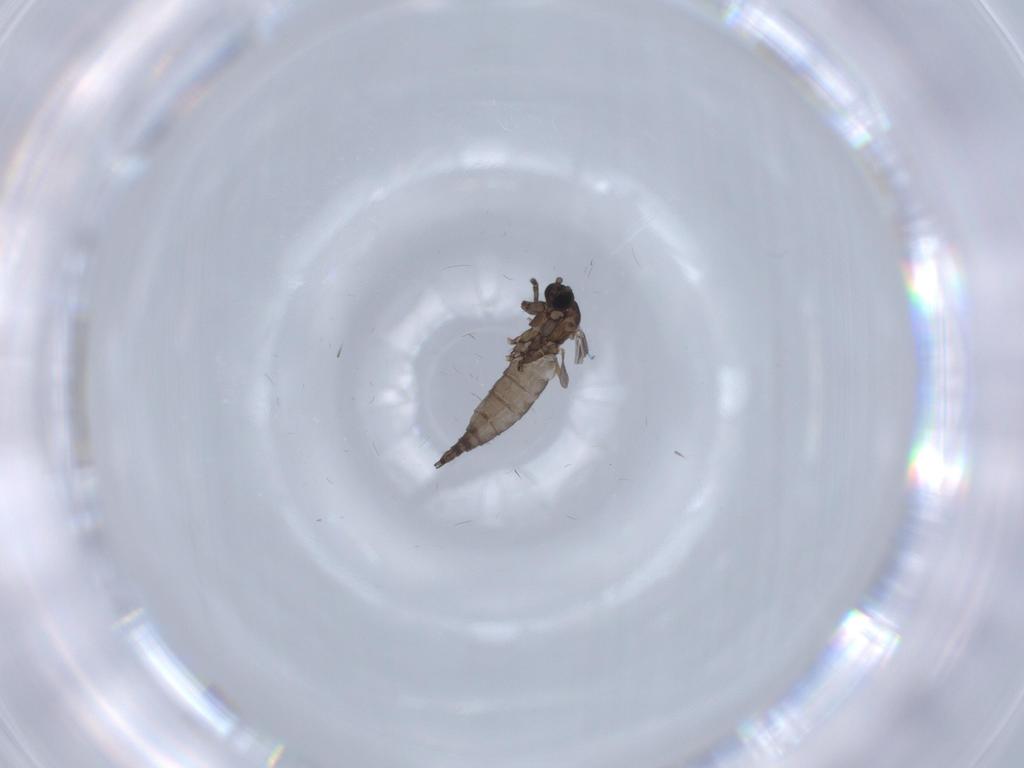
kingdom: Animalia
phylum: Arthropoda
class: Insecta
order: Diptera
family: Sciaridae
